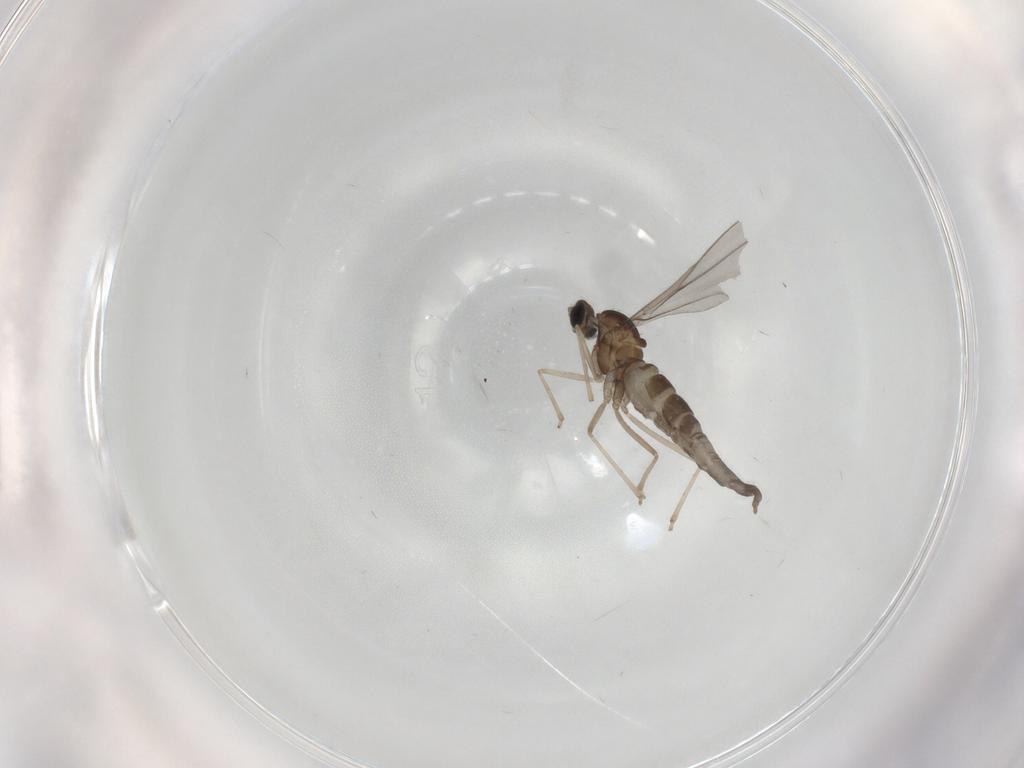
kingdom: Animalia
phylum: Arthropoda
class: Insecta
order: Diptera
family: Cecidomyiidae
